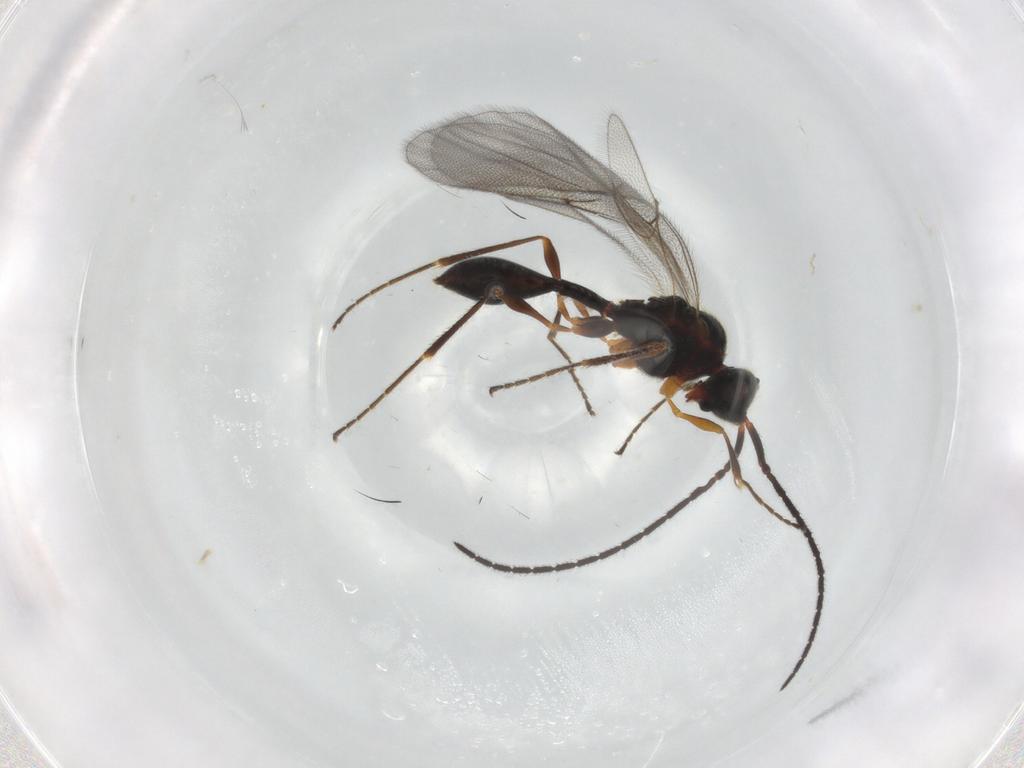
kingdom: Animalia
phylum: Arthropoda
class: Insecta
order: Hymenoptera
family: Diapriidae
